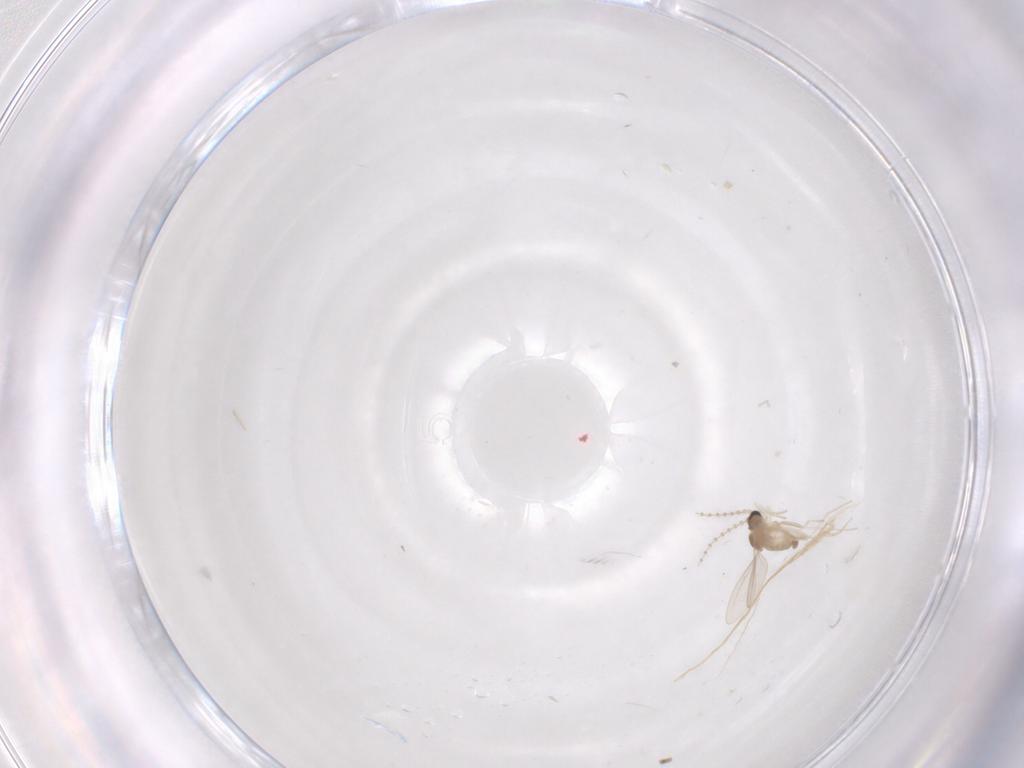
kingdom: Animalia
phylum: Arthropoda
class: Insecta
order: Diptera
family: Cecidomyiidae
